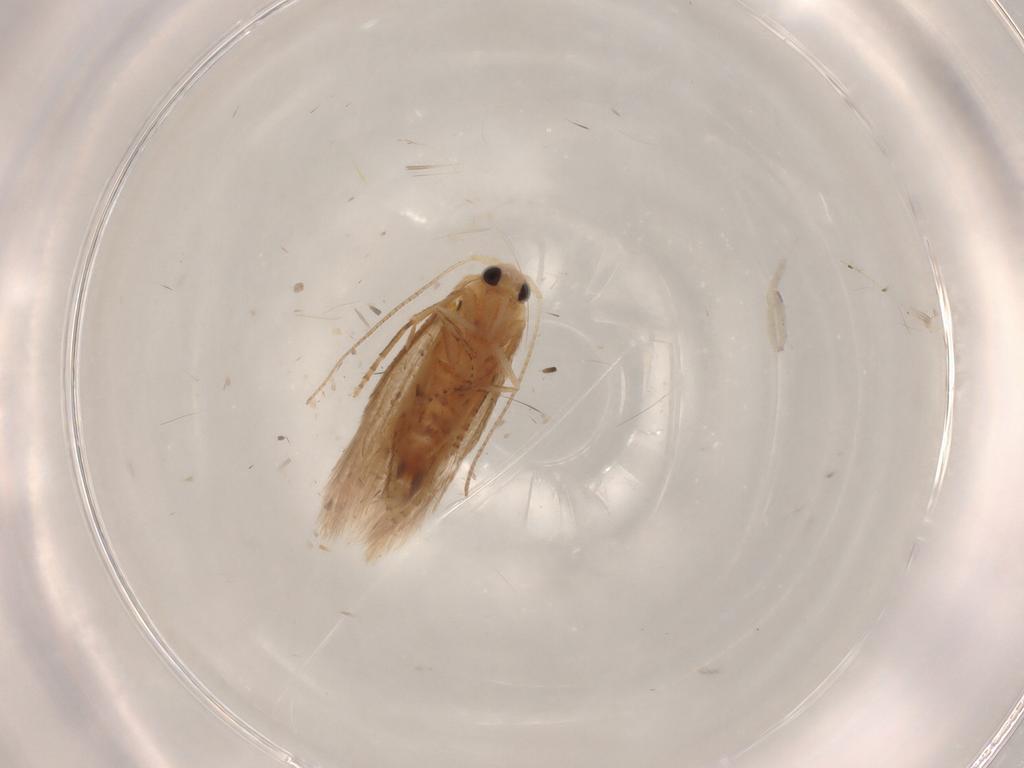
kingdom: Animalia
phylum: Arthropoda
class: Insecta
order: Lepidoptera
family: Bucculatricidae
